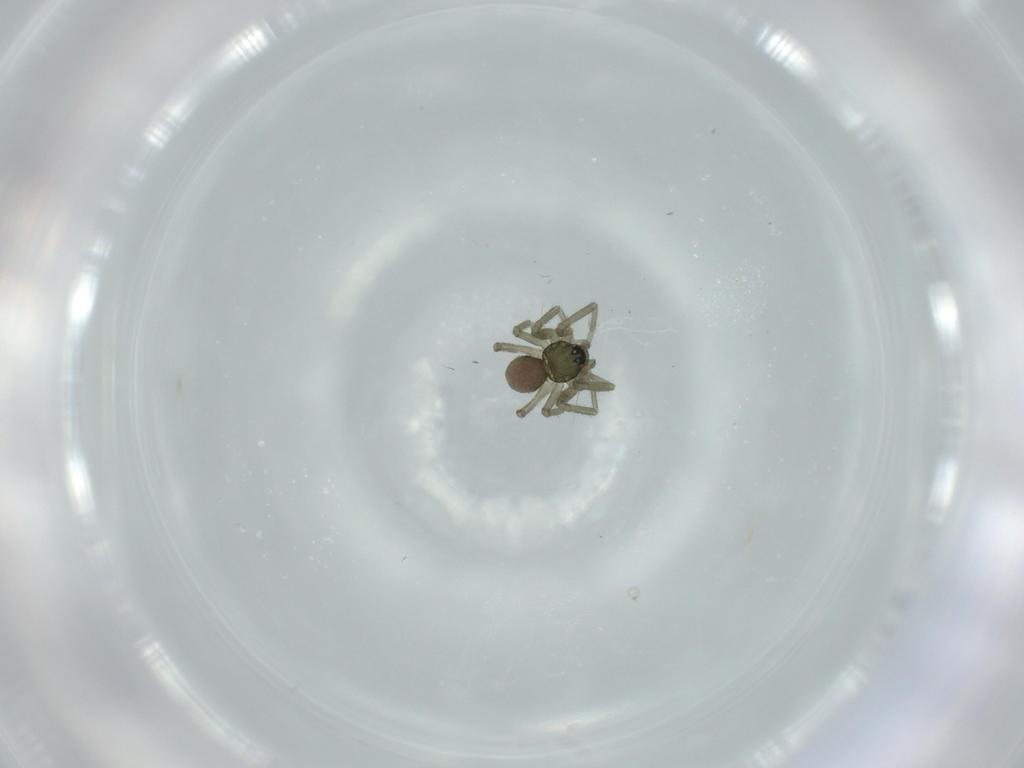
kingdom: Animalia
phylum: Arthropoda
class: Arachnida
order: Araneae
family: Linyphiidae
